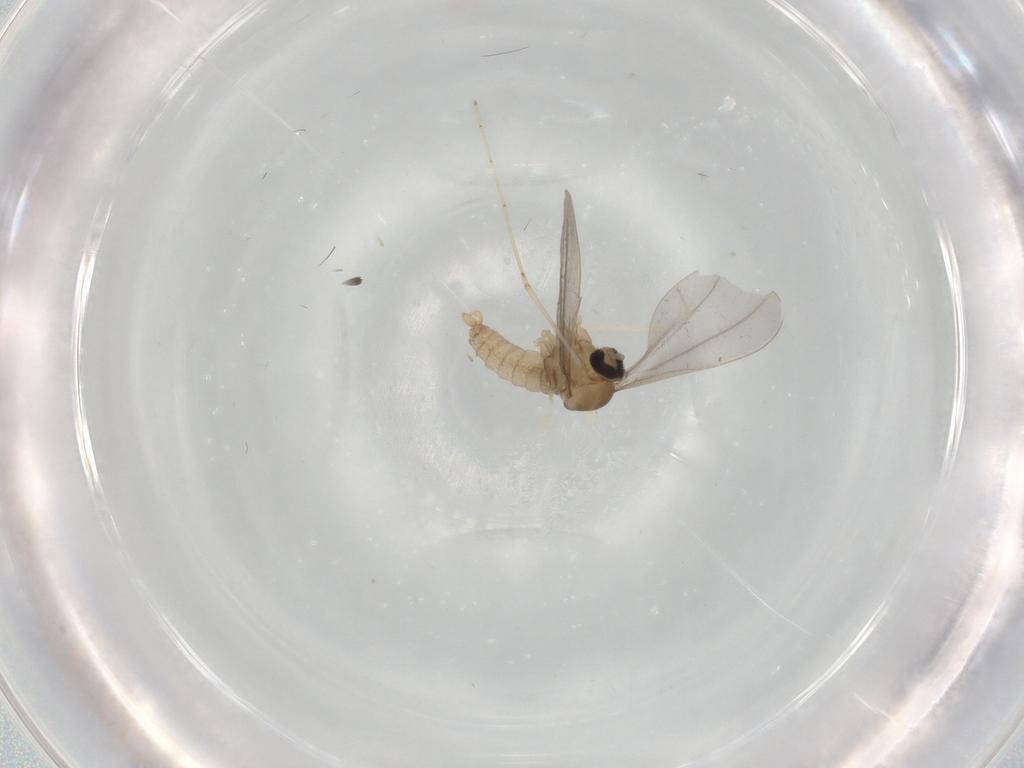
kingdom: Animalia
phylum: Arthropoda
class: Insecta
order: Diptera
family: Cecidomyiidae
